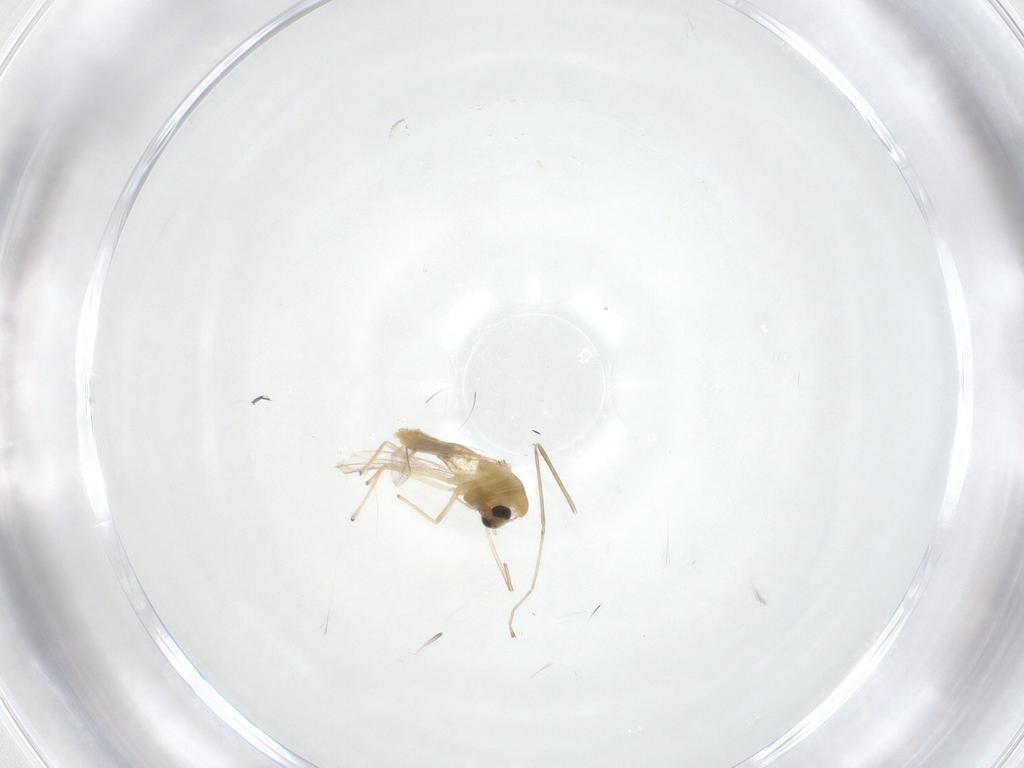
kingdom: Animalia
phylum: Arthropoda
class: Insecta
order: Diptera
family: Chironomidae
